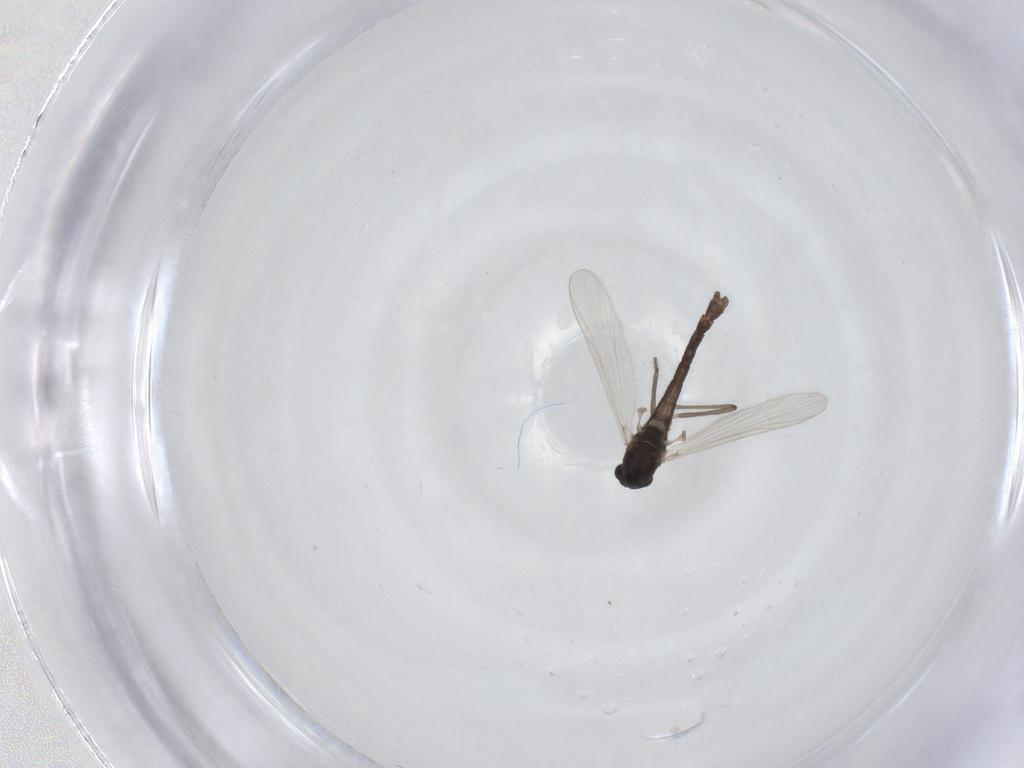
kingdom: Animalia
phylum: Arthropoda
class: Insecta
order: Diptera
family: Chironomidae
